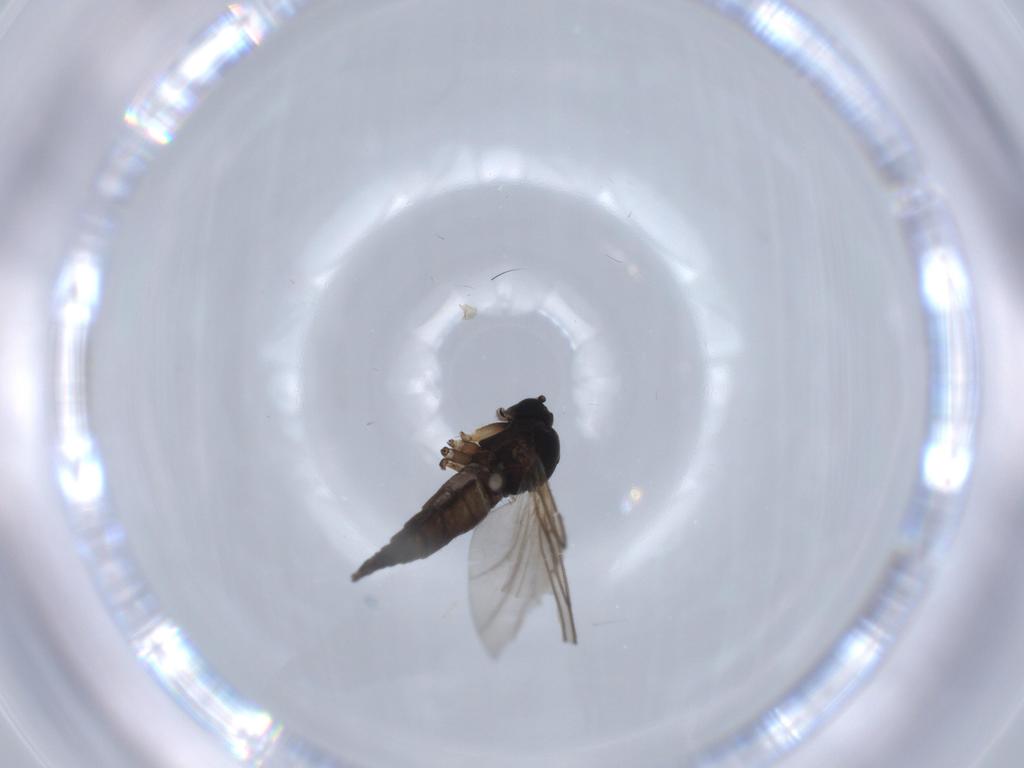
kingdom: Animalia
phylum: Arthropoda
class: Insecta
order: Diptera
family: Sciaridae
